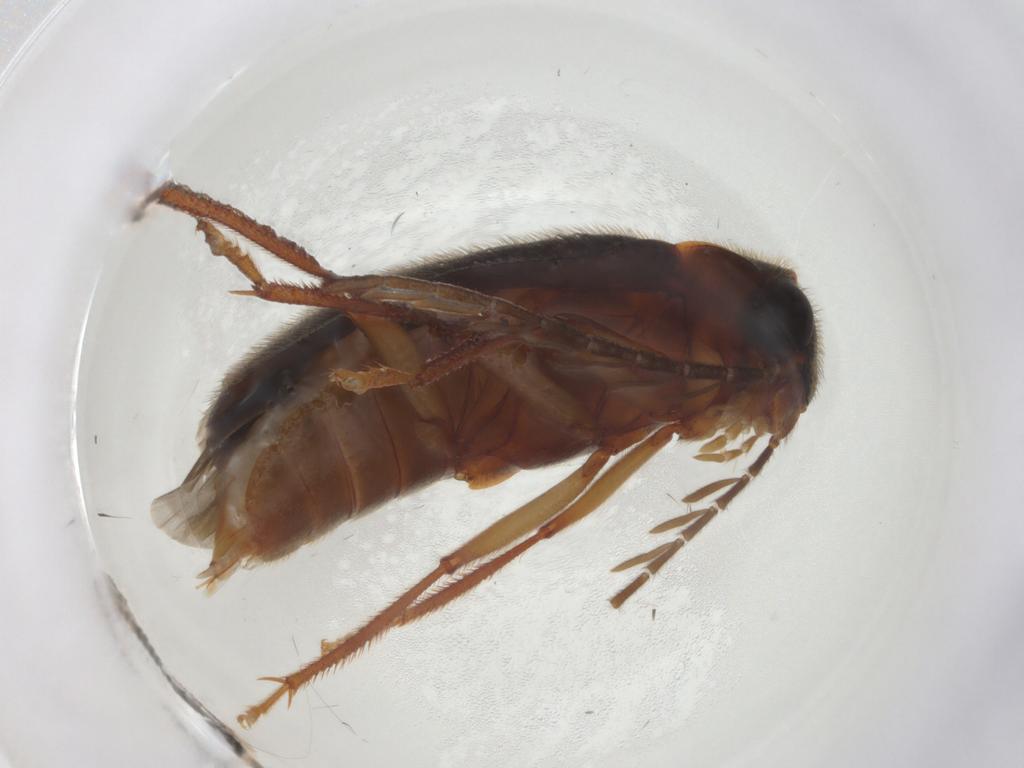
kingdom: Animalia
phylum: Arthropoda
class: Insecta
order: Coleoptera
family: Ptilodactylidae
